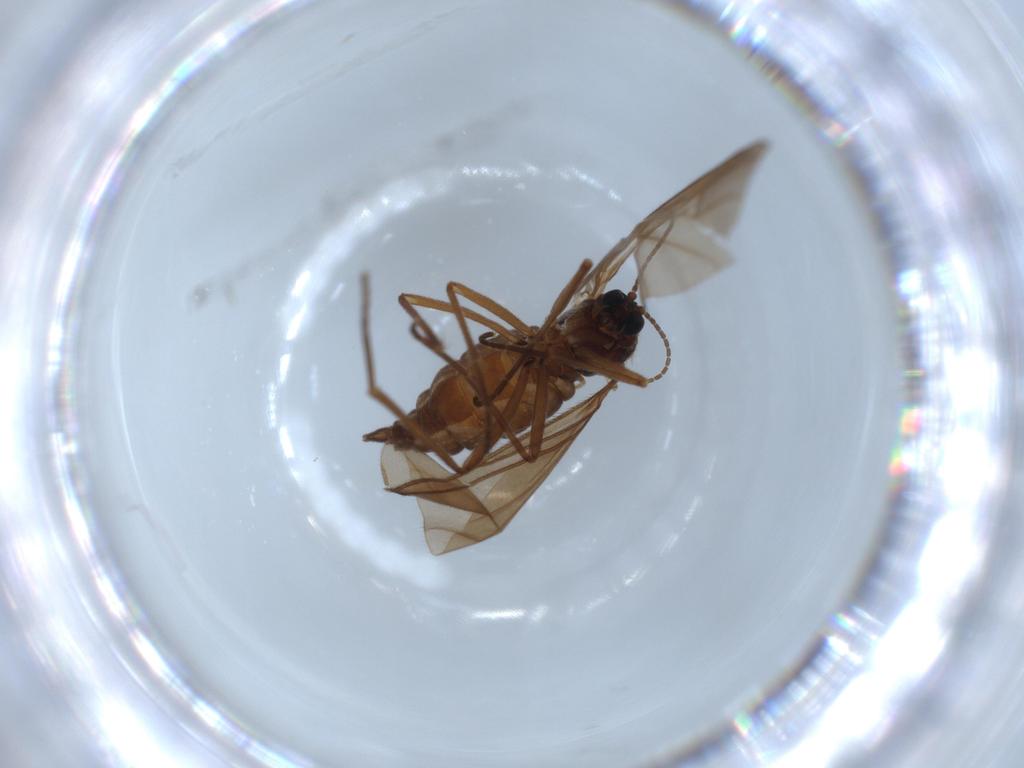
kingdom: Animalia
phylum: Arthropoda
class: Insecta
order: Diptera
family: Sciaridae
